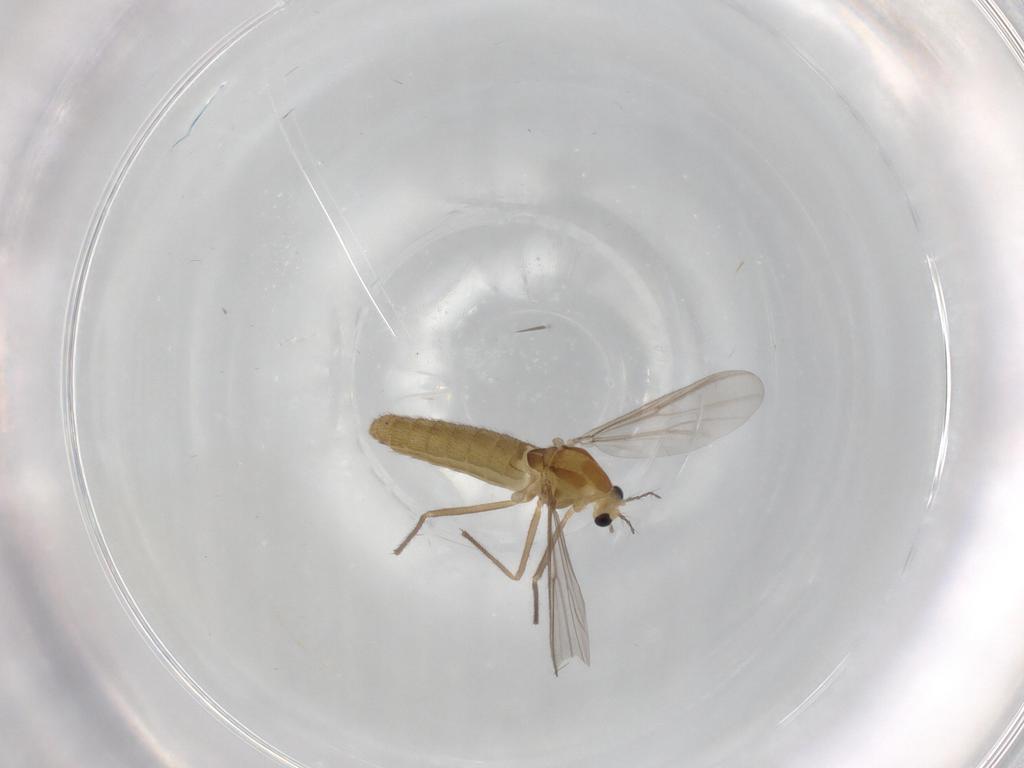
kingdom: Animalia
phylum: Arthropoda
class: Insecta
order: Diptera
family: Chironomidae
